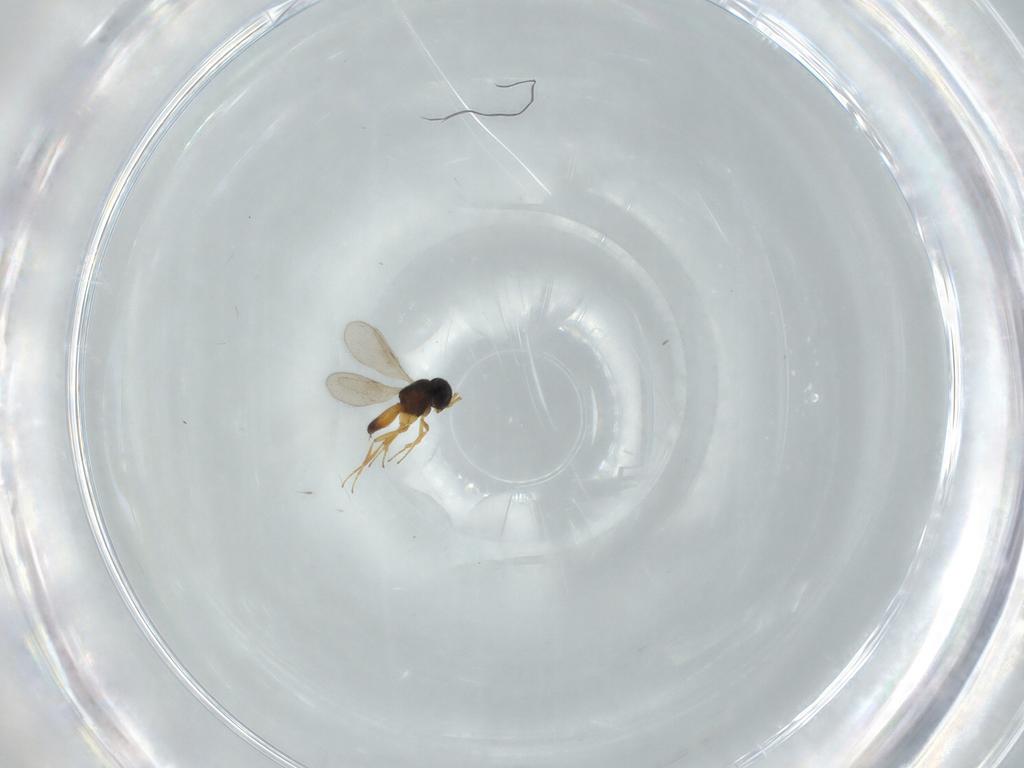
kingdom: Animalia
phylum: Arthropoda
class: Insecta
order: Hymenoptera
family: Scelionidae
